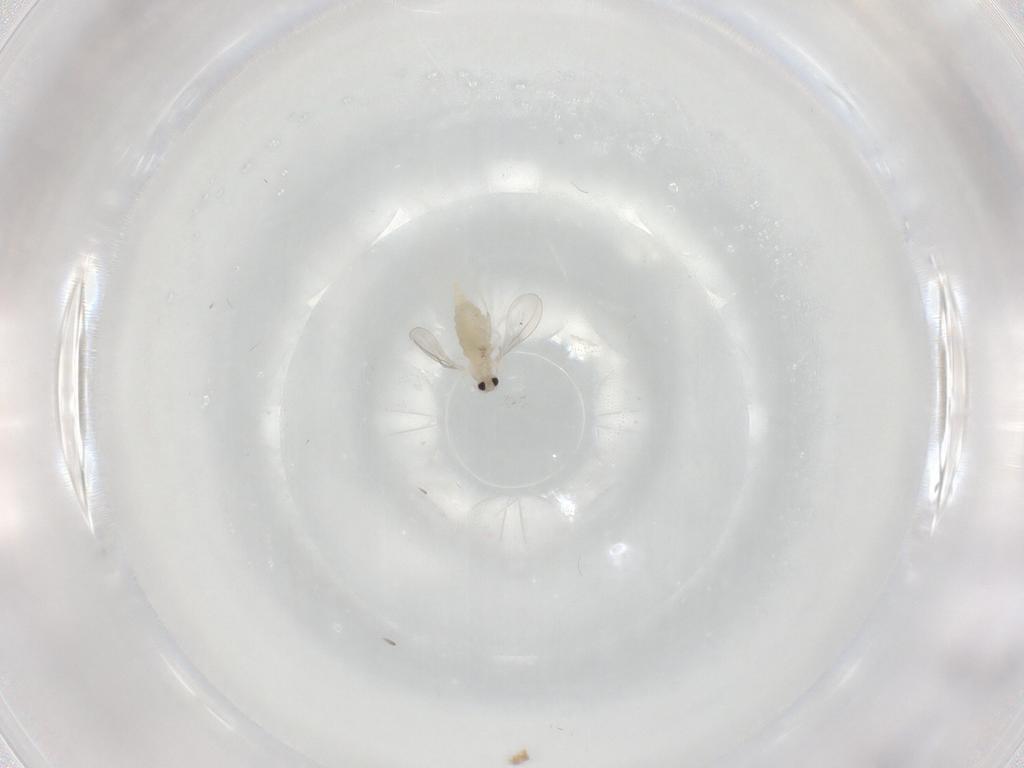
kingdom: Animalia
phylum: Arthropoda
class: Insecta
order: Diptera
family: Cecidomyiidae
